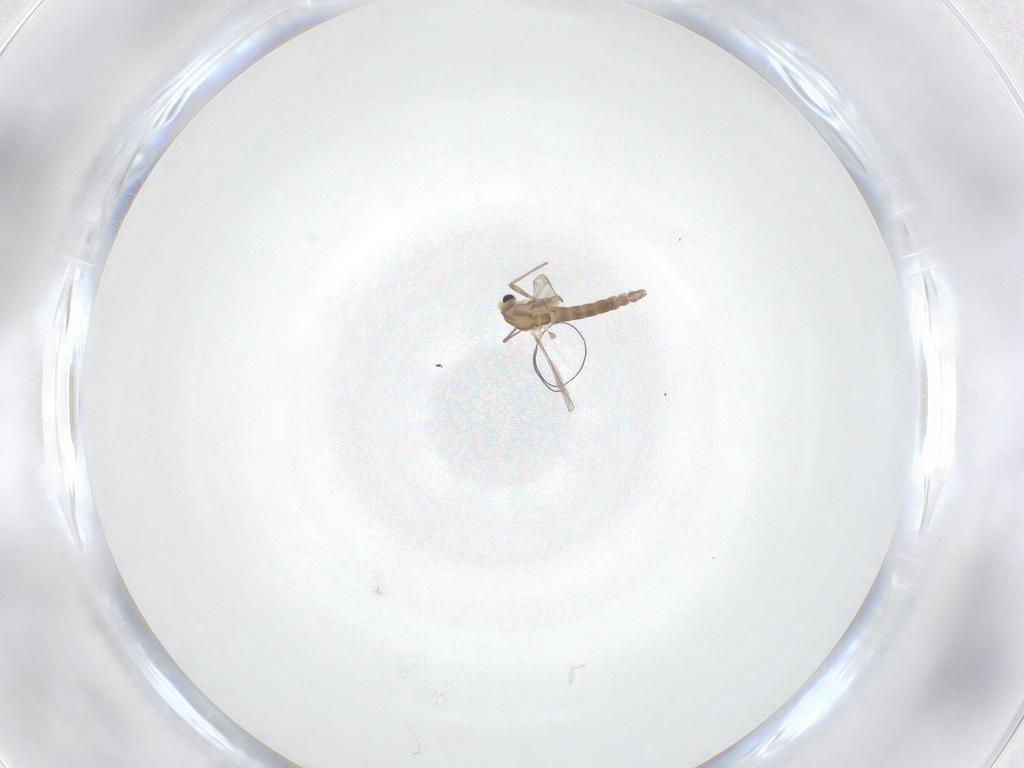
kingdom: Animalia
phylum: Arthropoda
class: Insecta
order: Diptera
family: Chironomidae
